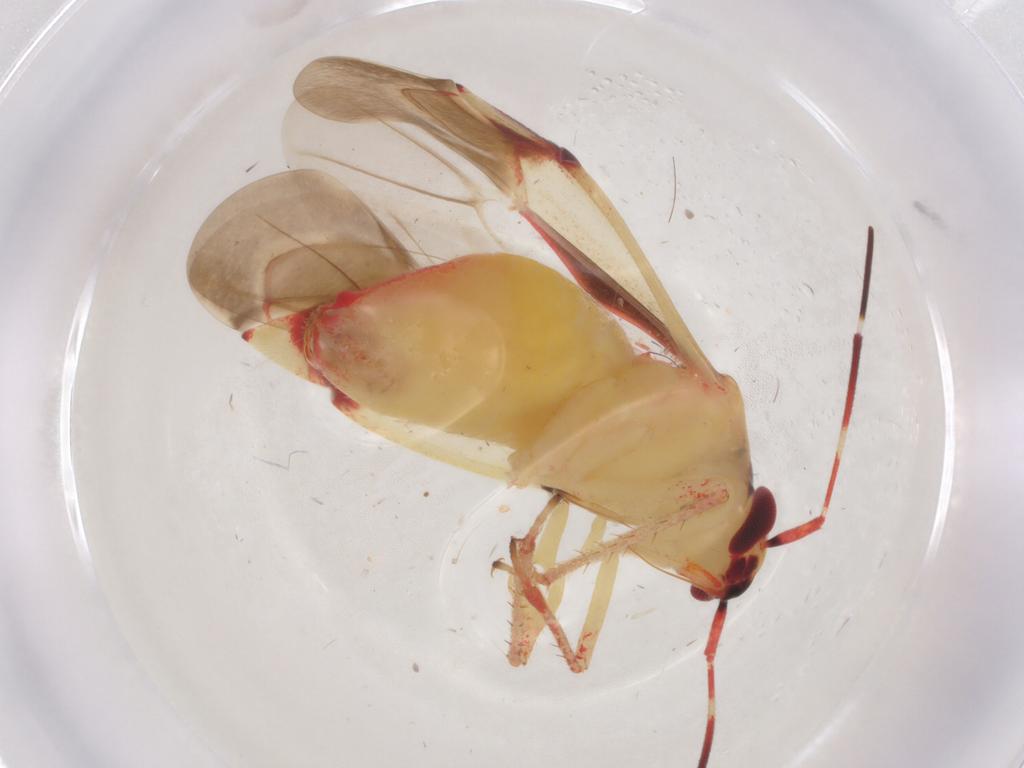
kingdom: Animalia
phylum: Arthropoda
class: Insecta
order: Hemiptera
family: Miridae
